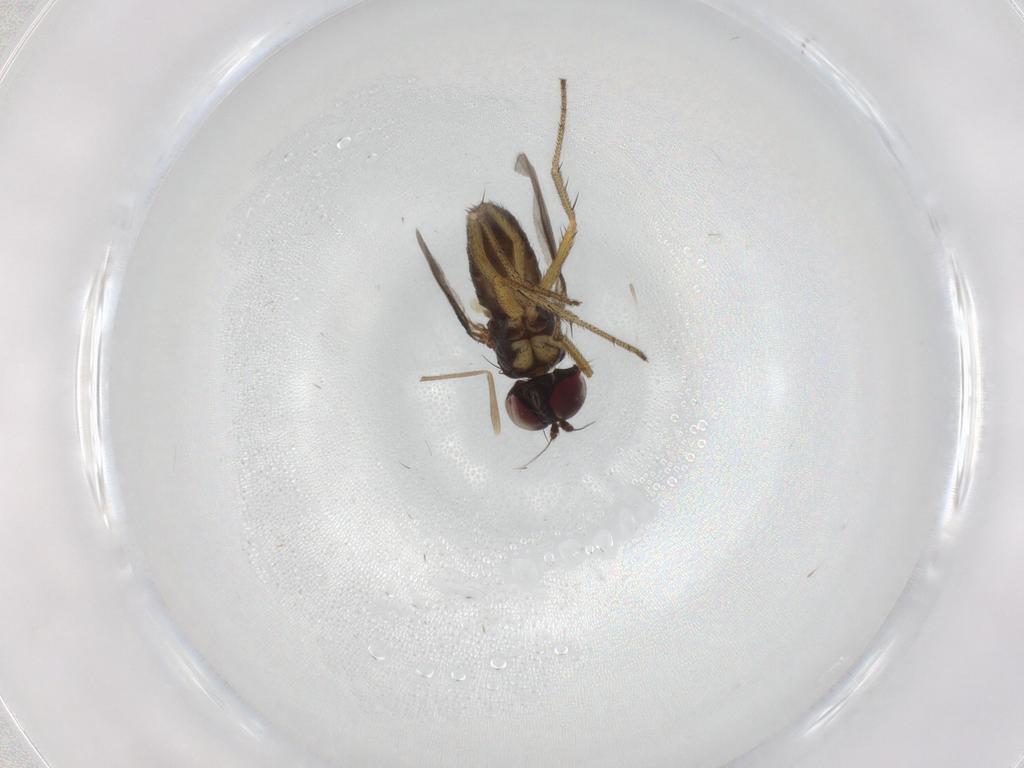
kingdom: Animalia
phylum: Arthropoda
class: Insecta
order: Diptera
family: Dolichopodidae
